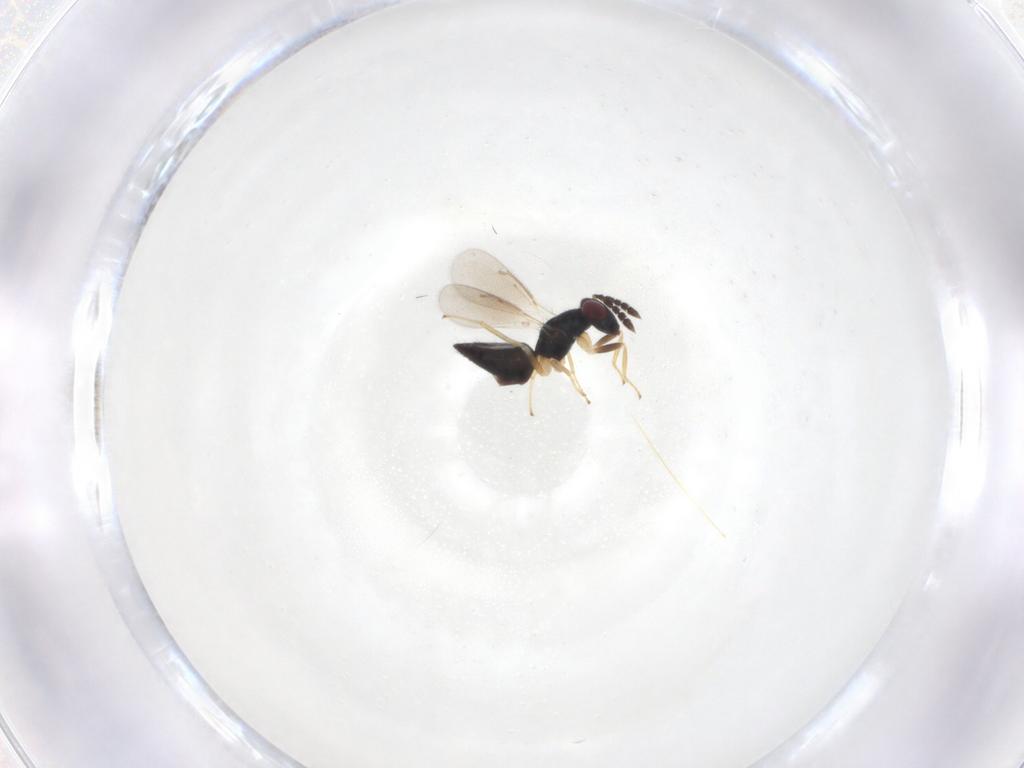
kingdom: Animalia
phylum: Arthropoda
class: Insecta
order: Hymenoptera
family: Eulophidae
